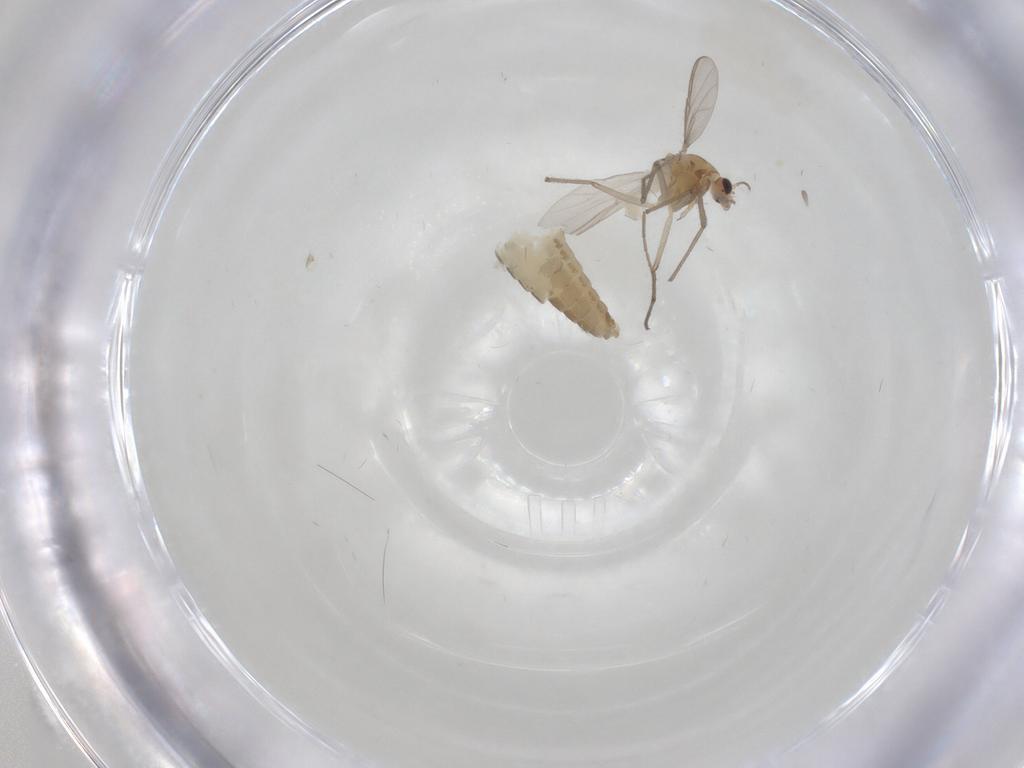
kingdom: Animalia
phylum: Arthropoda
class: Insecta
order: Diptera
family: Chironomidae
